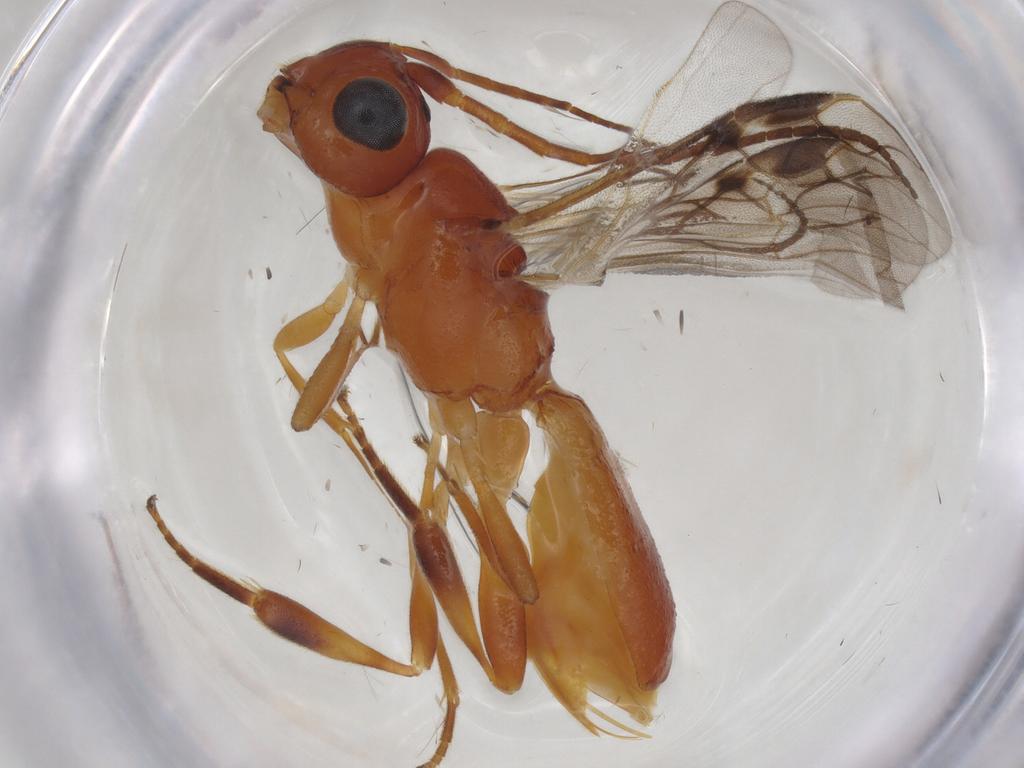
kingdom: Animalia
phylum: Arthropoda
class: Insecta
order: Hymenoptera
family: Braconidae
